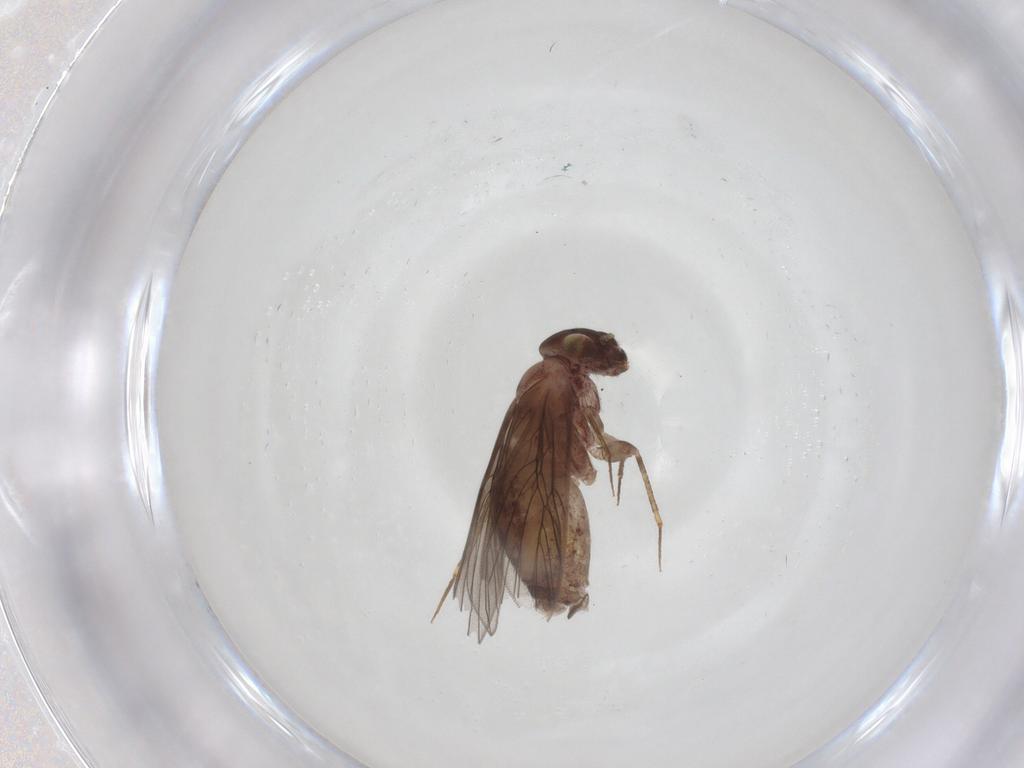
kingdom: Animalia
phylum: Arthropoda
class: Insecta
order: Psocodea
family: Lepidopsocidae
